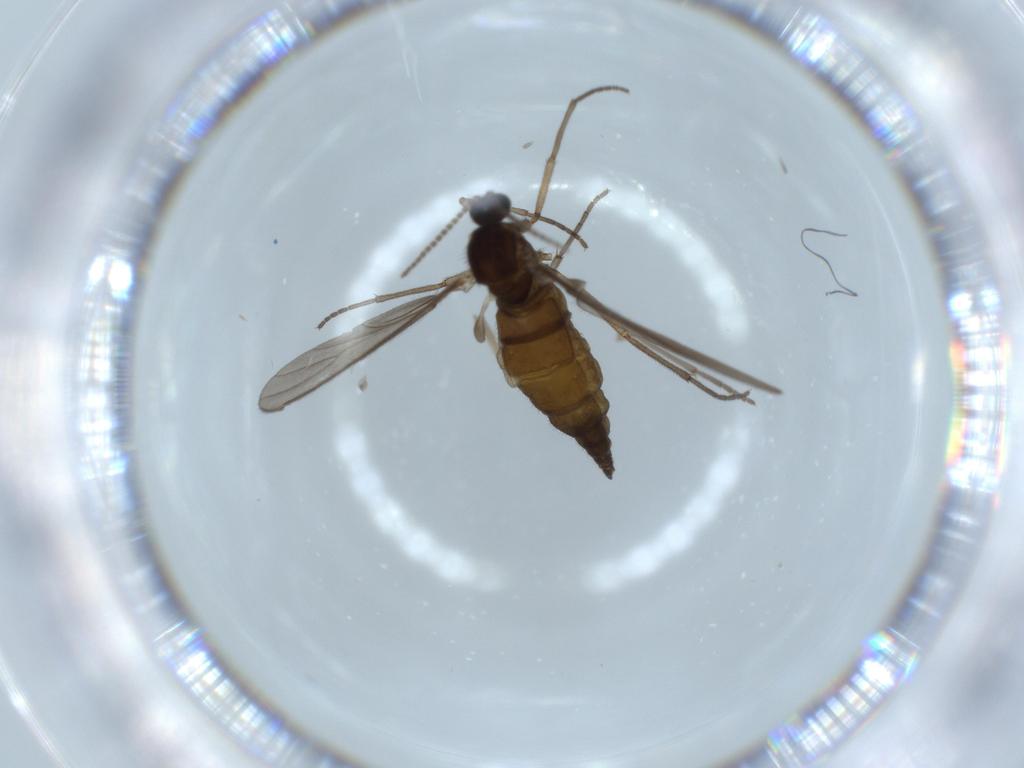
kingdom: Animalia
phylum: Arthropoda
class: Insecta
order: Diptera
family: Sciaridae
